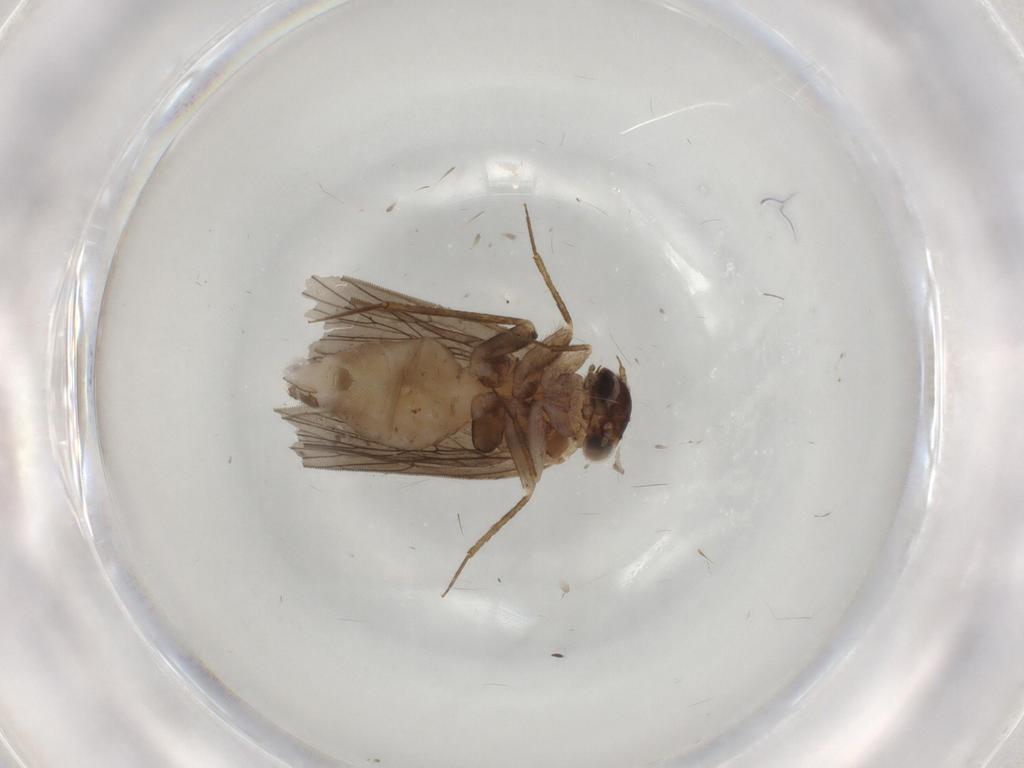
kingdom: Animalia
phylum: Arthropoda
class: Insecta
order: Psocodea
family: Lepidopsocidae
